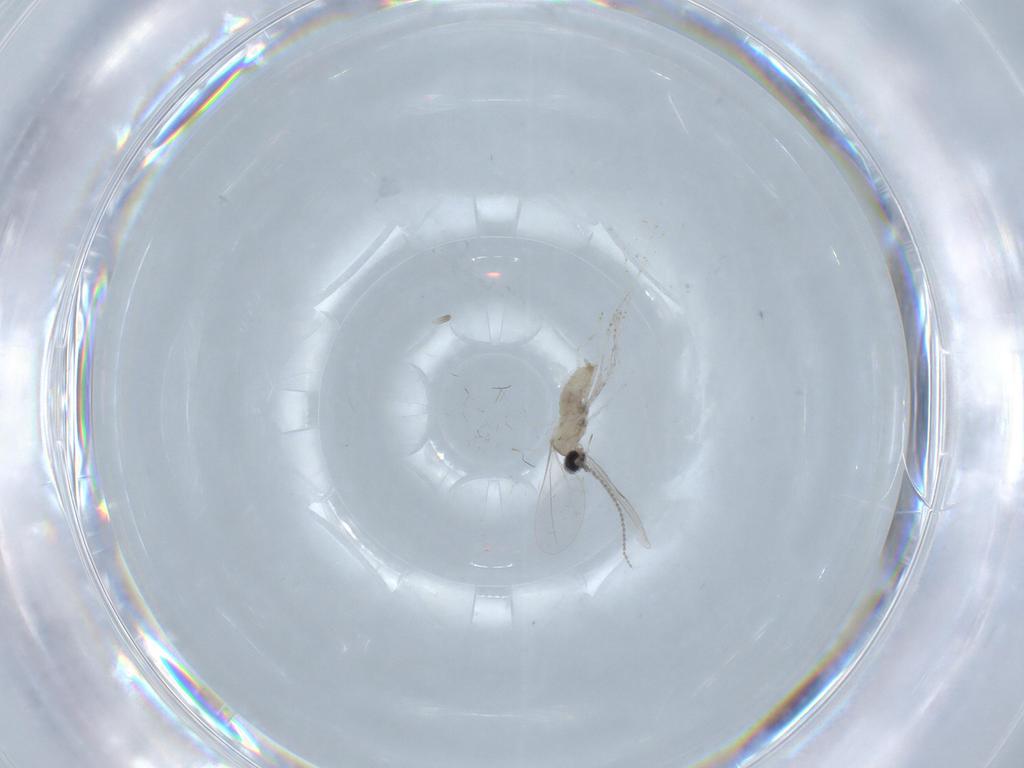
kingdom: Animalia
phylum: Arthropoda
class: Insecta
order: Diptera
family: Cecidomyiidae
